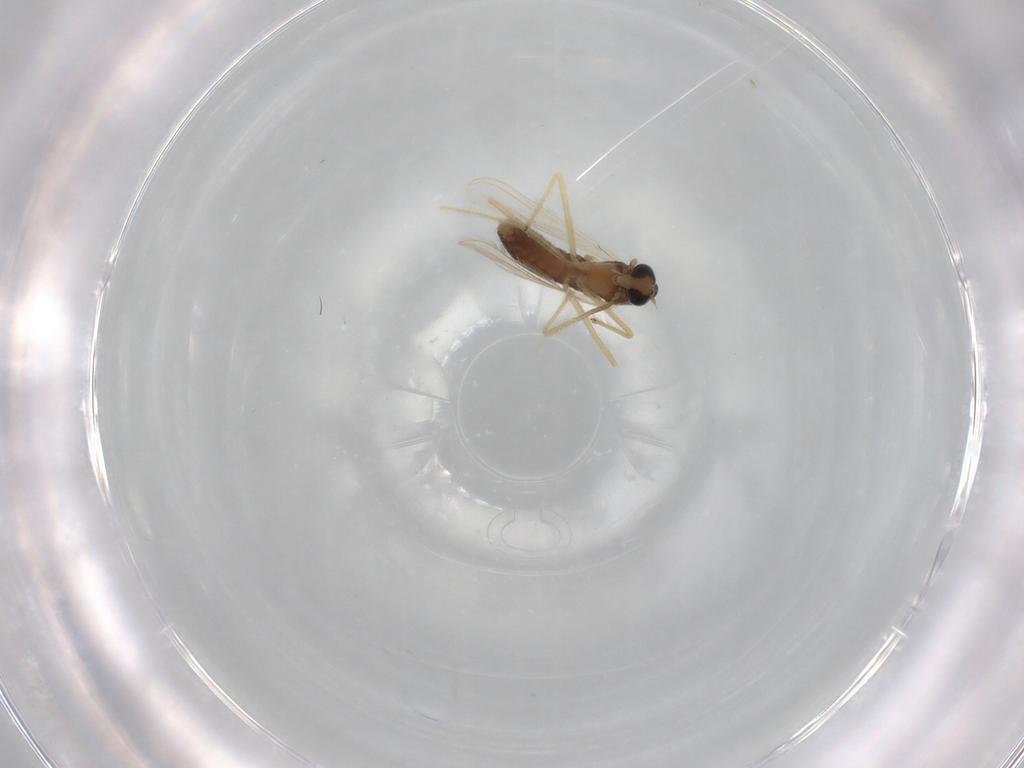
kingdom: Animalia
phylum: Arthropoda
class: Insecta
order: Diptera
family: Chironomidae
